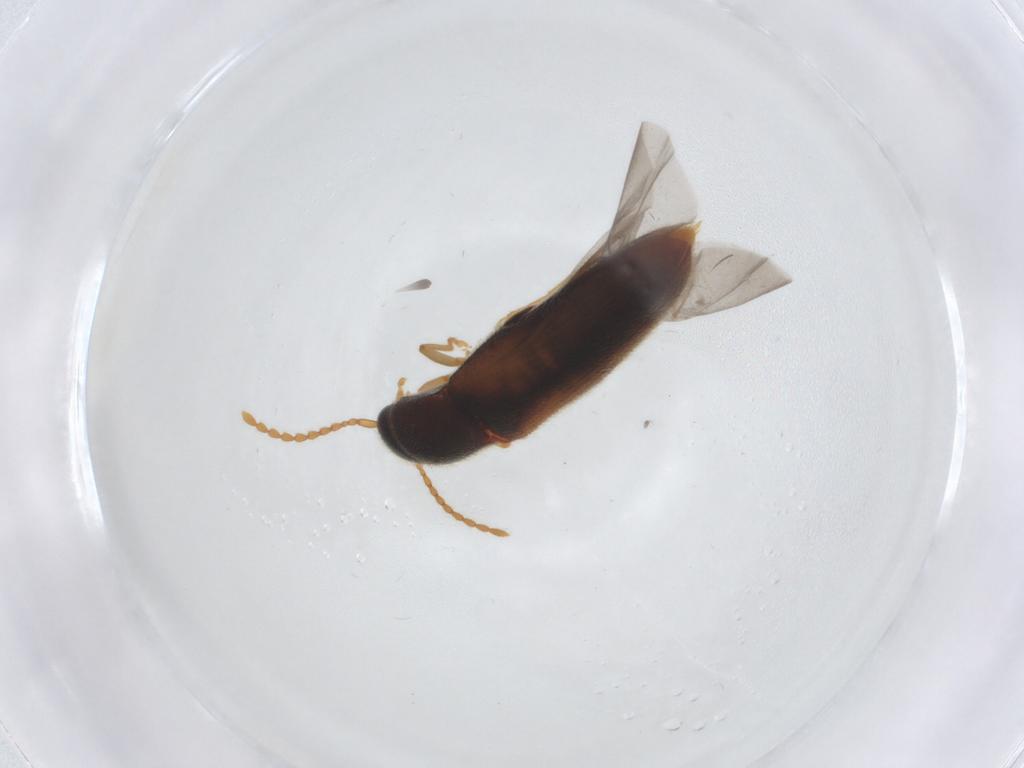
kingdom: Animalia
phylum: Arthropoda
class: Insecta
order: Coleoptera
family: Elateridae
